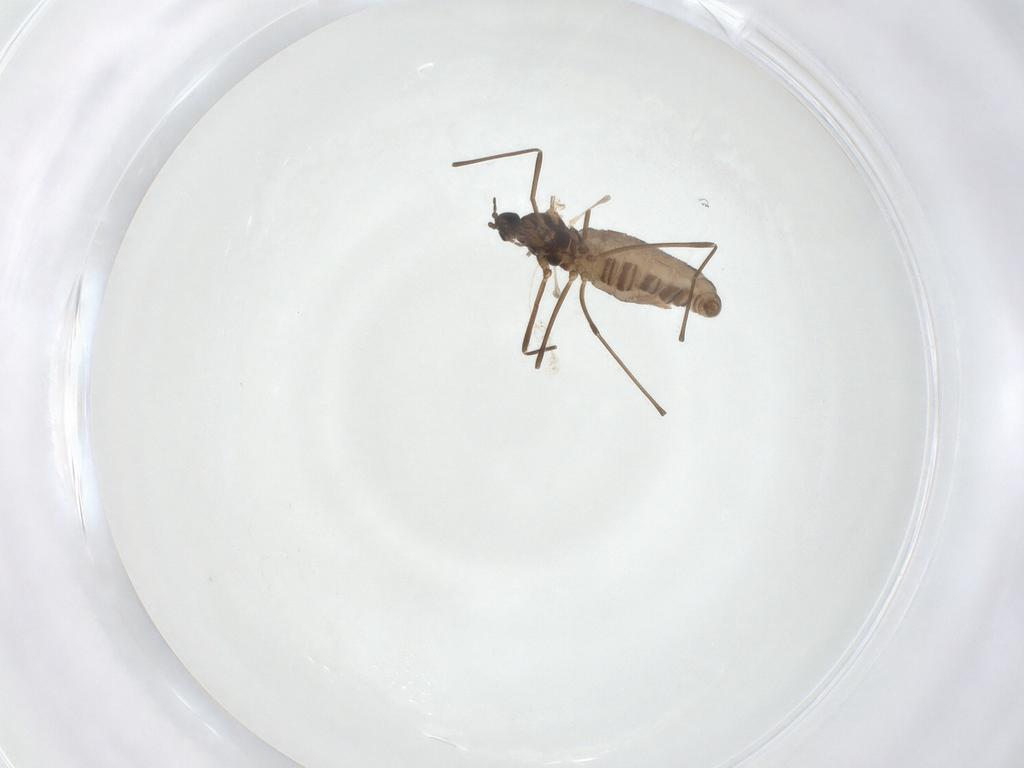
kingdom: Animalia
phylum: Arthropoda
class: Insecta
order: Diptera
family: Cecidomyiidae
